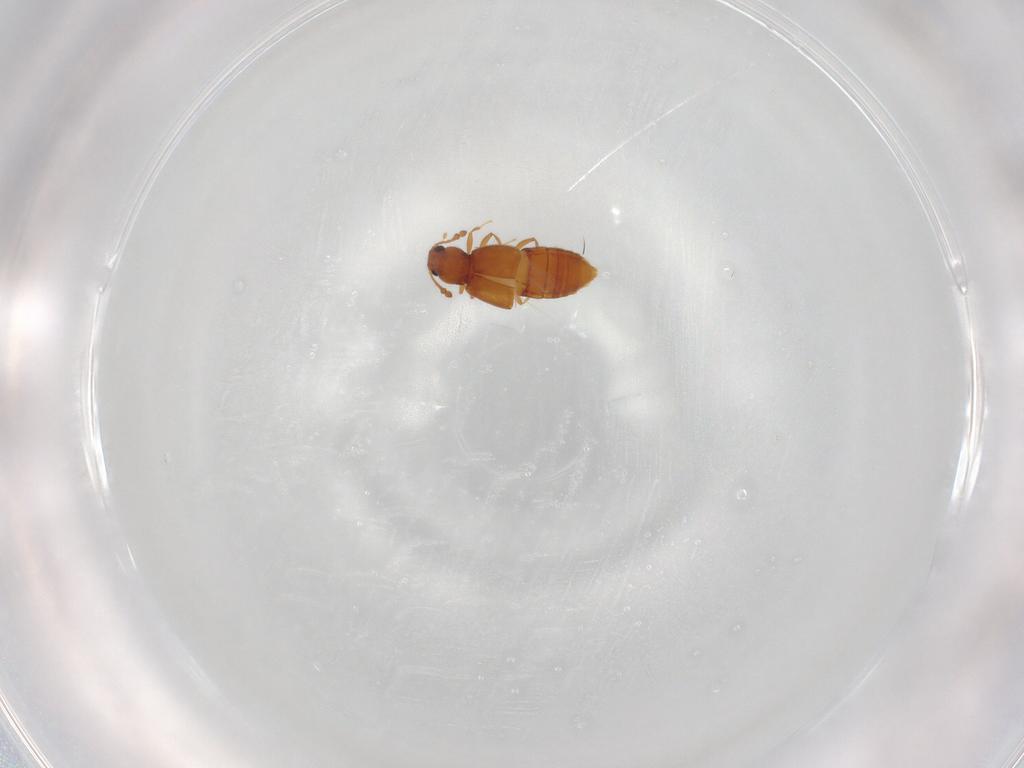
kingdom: Animalia
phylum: Arthropoda
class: Insecta
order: Coleoptera
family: Staphylinidae
